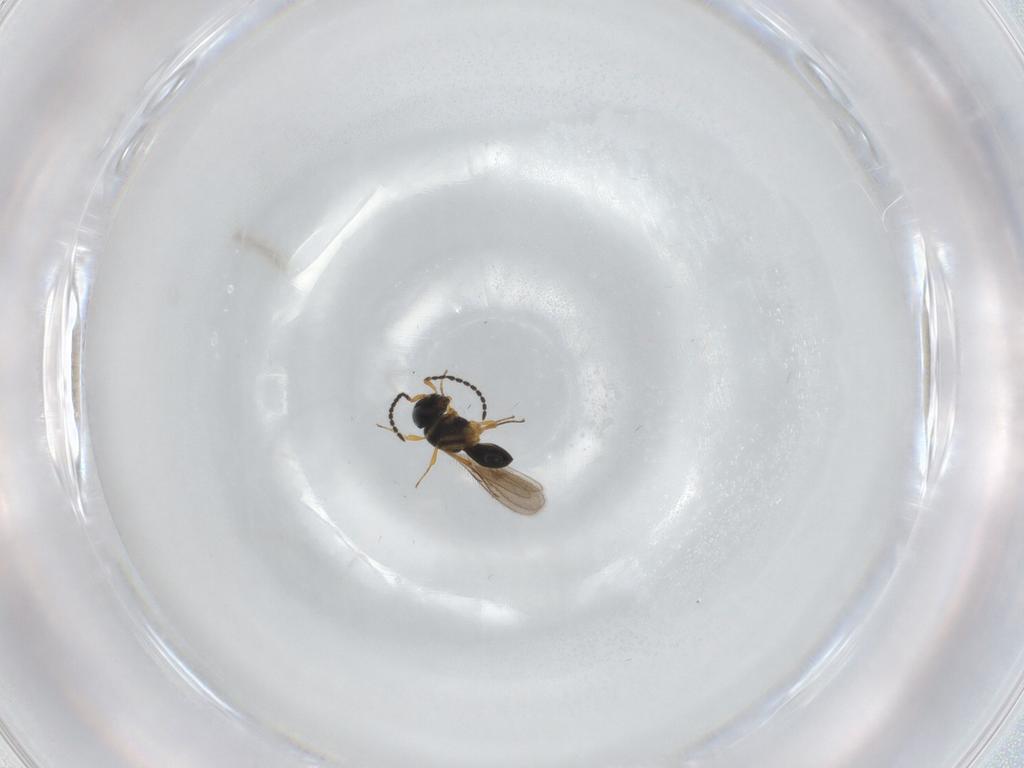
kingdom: Animalia
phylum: Arthropoda
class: Insecta
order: Hymenoptera
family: Scelionidae
